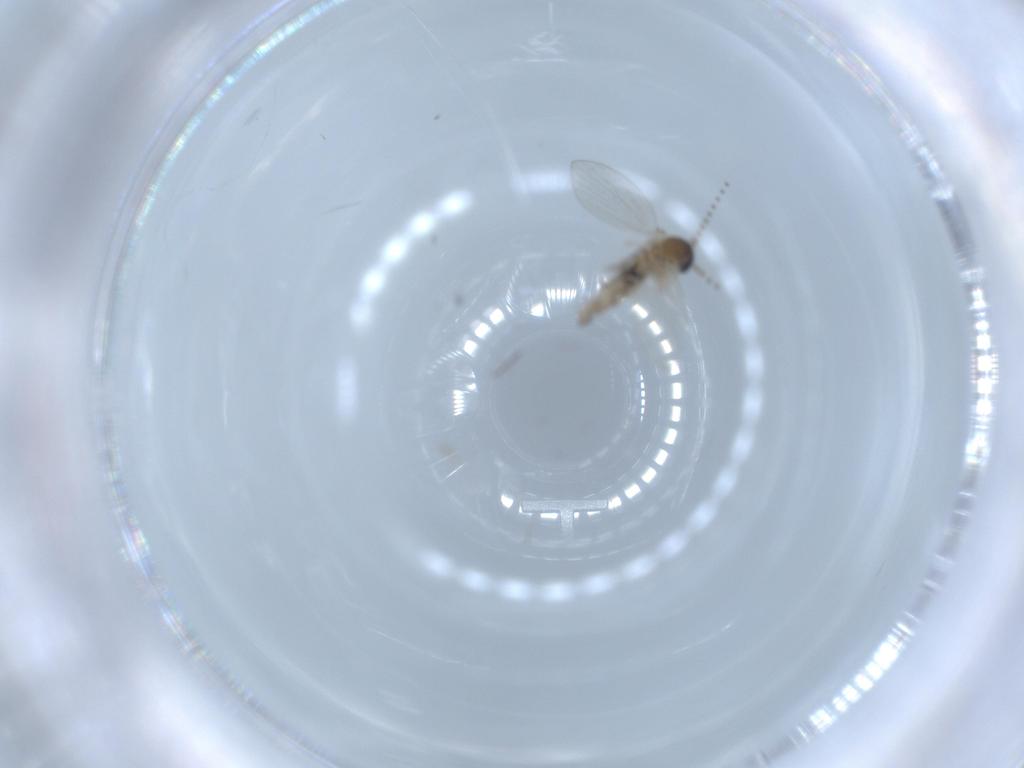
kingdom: Animalia
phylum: Arthropoda
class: Insecta
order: Diptera
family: Cecidomyiidae
